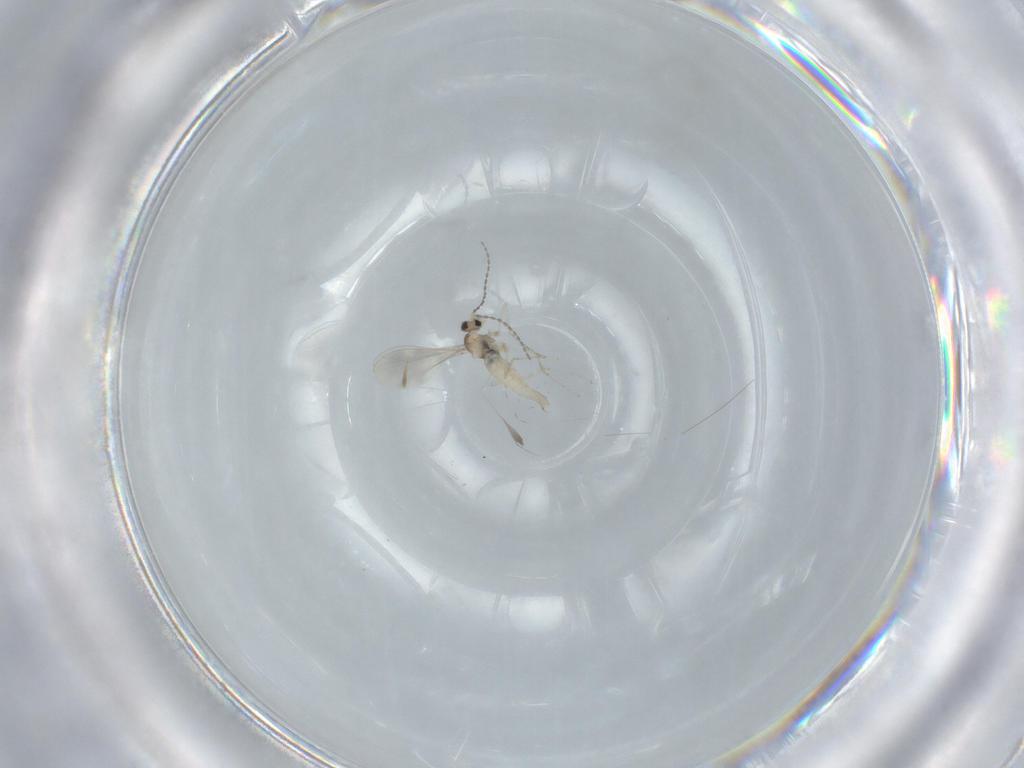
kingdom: Animalia
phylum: Arthropoda
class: Insecta
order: Diptera
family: Cecidomyiidae
